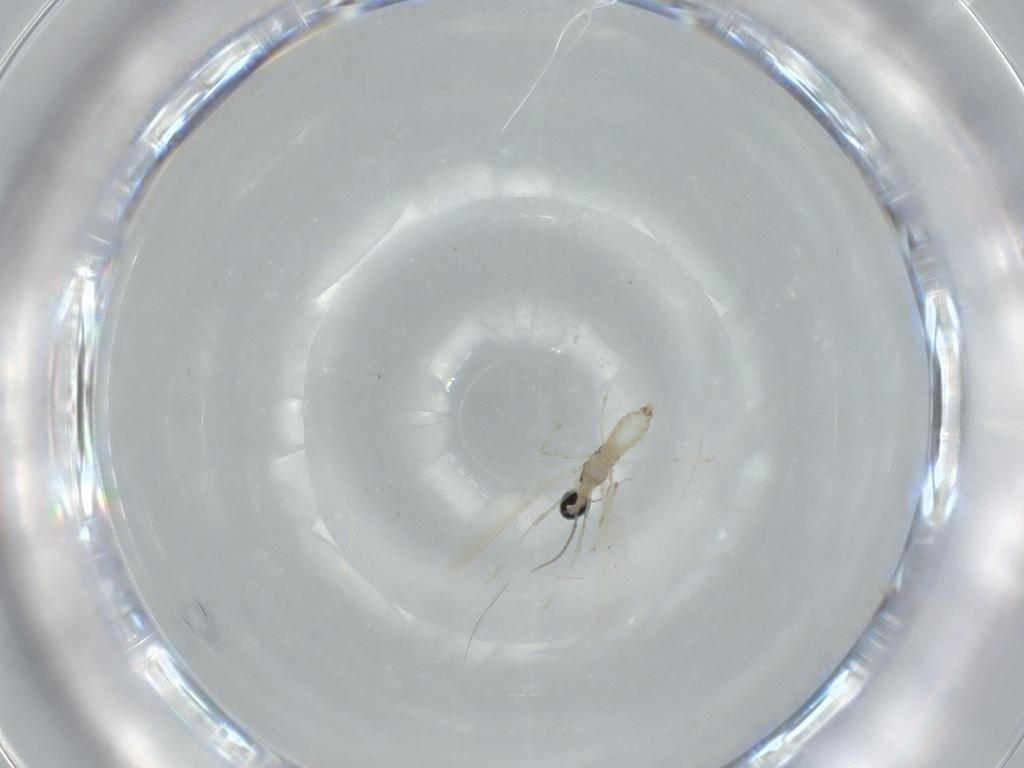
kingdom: Animalia
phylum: Arthropoda
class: Insecta
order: Diptera
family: Cecidomyiidae
